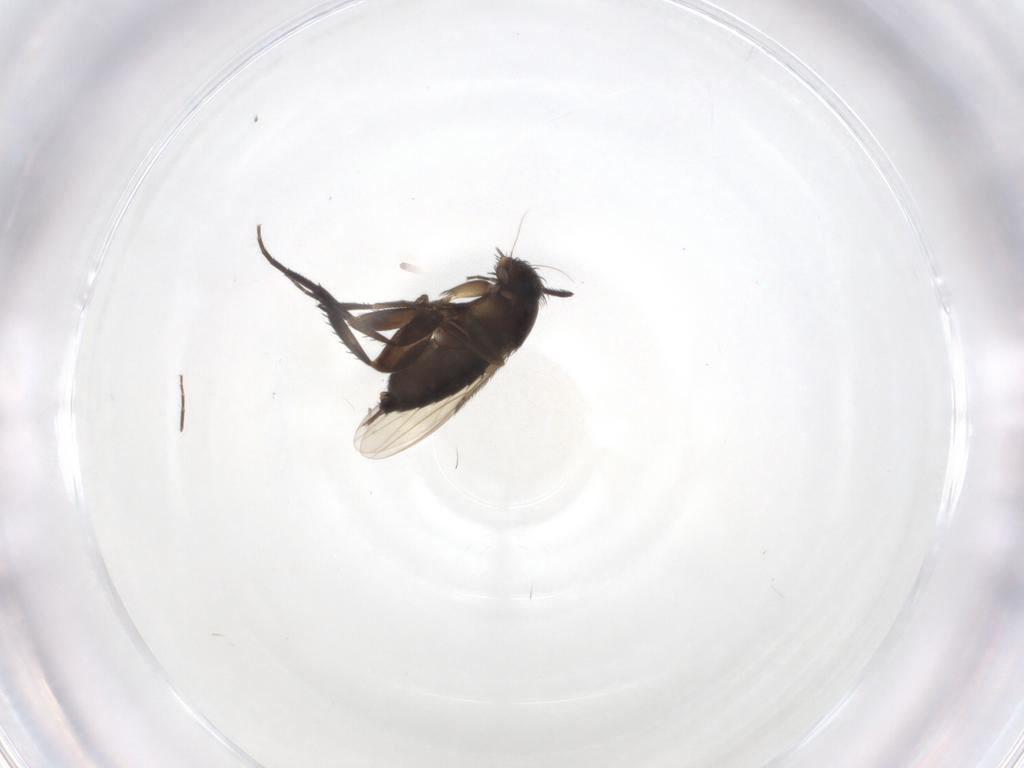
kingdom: Animalia
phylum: Arthropoda
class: Insecta
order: Diptera
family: Phoridae
